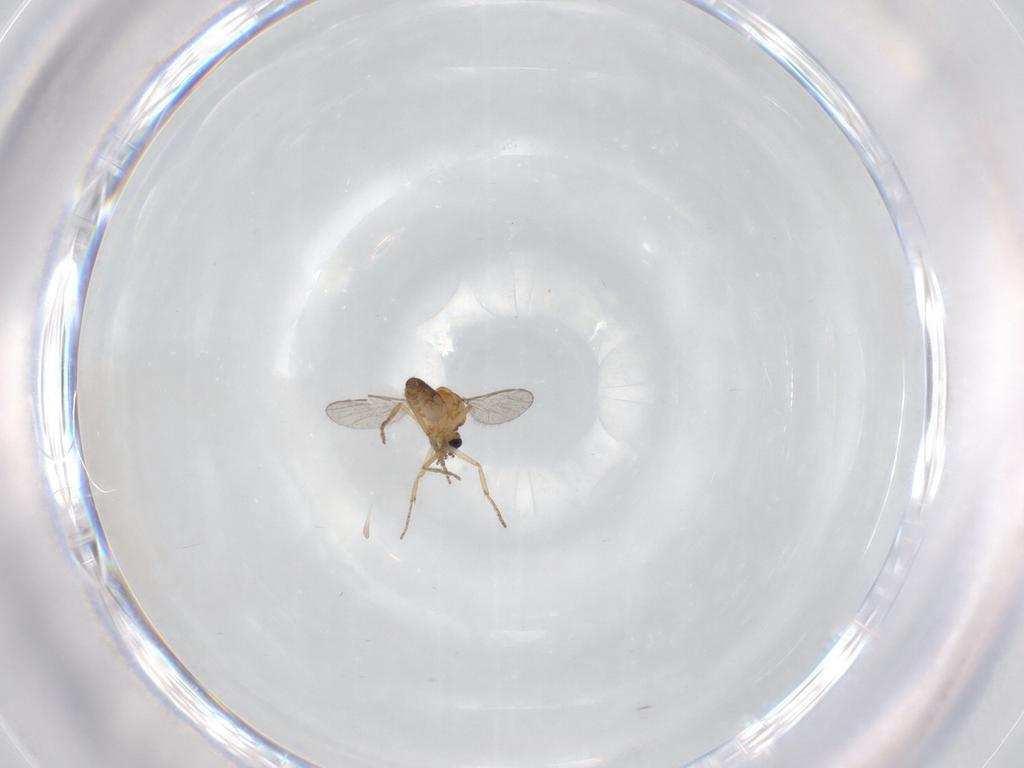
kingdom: Animalia
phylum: Arthropoda
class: Insecta
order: Diptera
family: Ceratopogonidae
